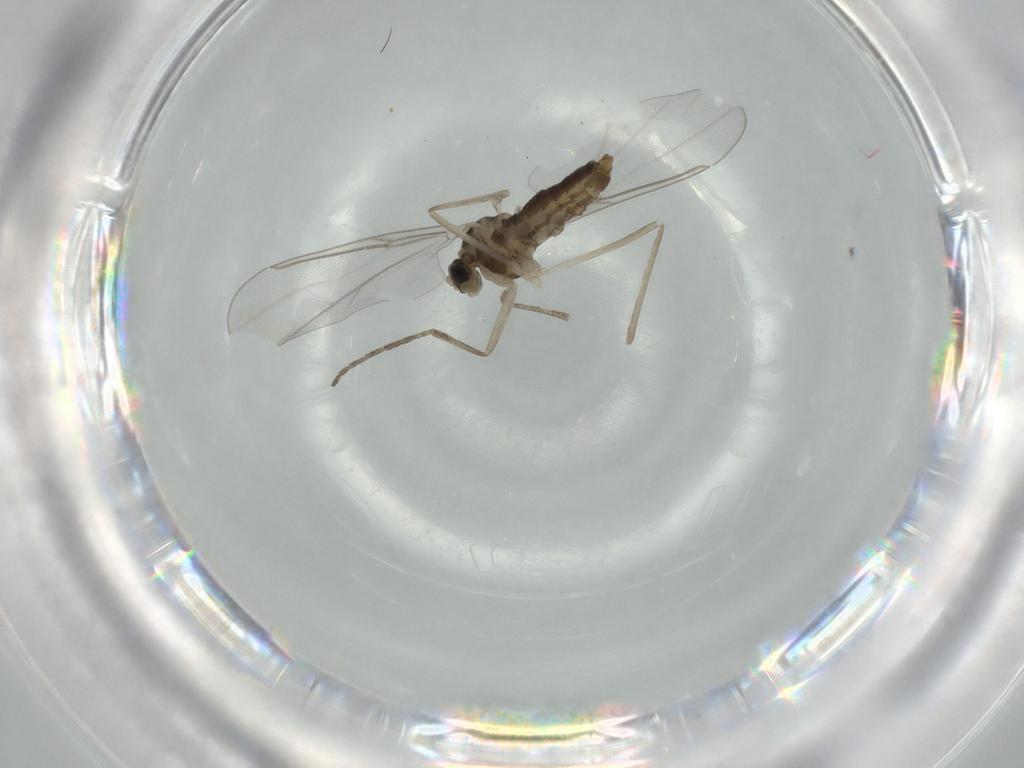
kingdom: Animalia
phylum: Arthropoda
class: Insecta
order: Diptera
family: Cecidomyiidae
